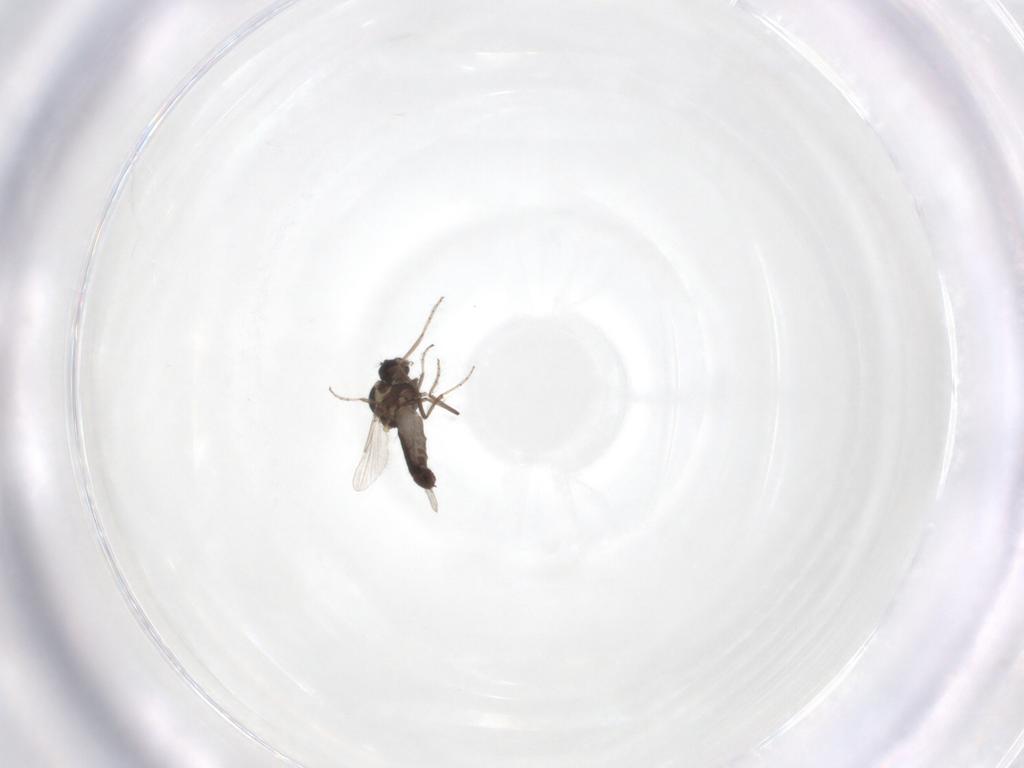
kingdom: Animalia
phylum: Arthropoda
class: Insecta
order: Diptera
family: Ceratopogonidae
